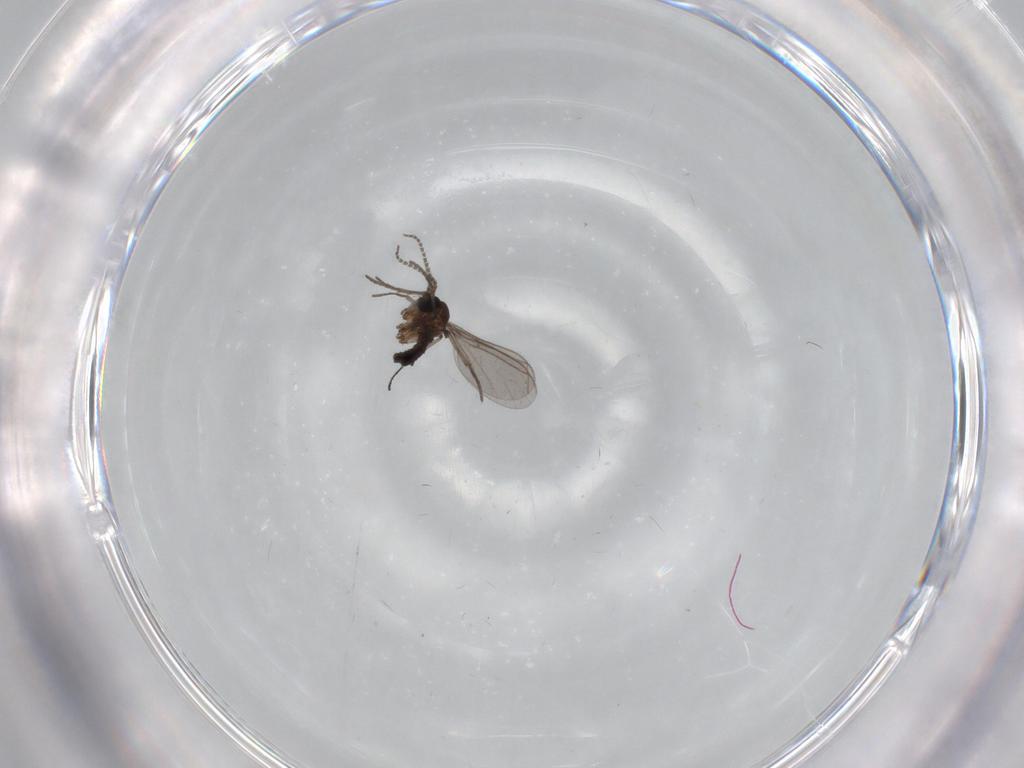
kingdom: Animalia
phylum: Arthropoda
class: Insecta
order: Diptera
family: Chironomidae
